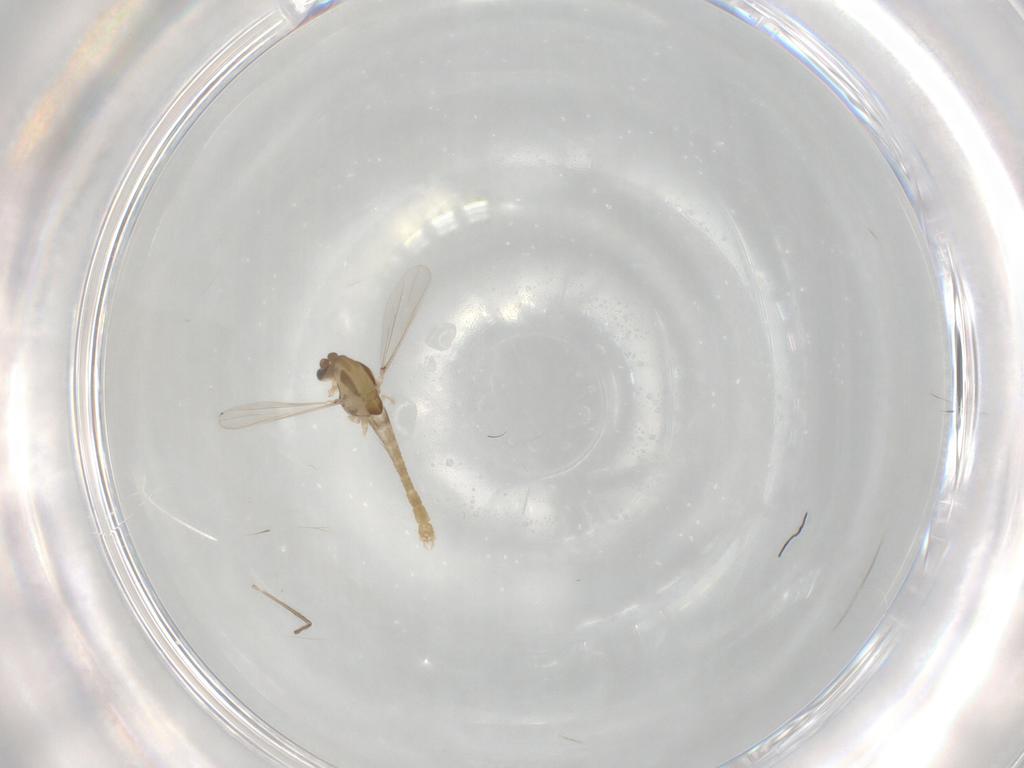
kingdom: Animalia
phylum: Arthropoda
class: Insecta
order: Diptera
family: Chironomidae
